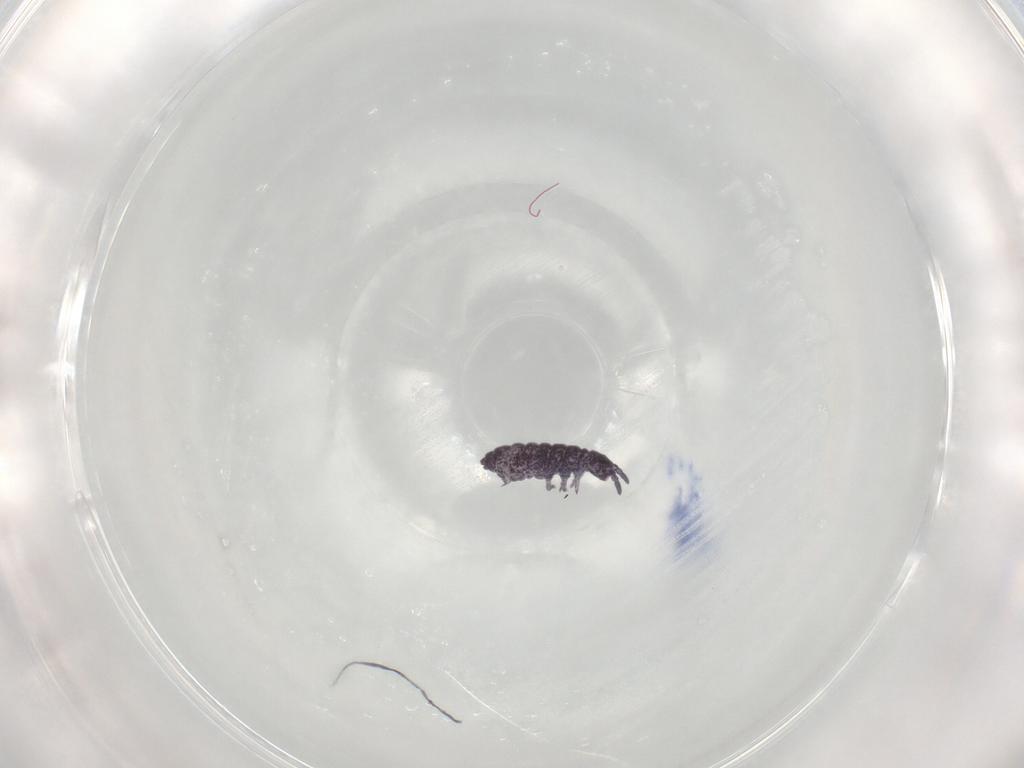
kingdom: Animalia
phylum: Arthropoda
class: Collembola
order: Poduromorpha
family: Brachystomellidae
